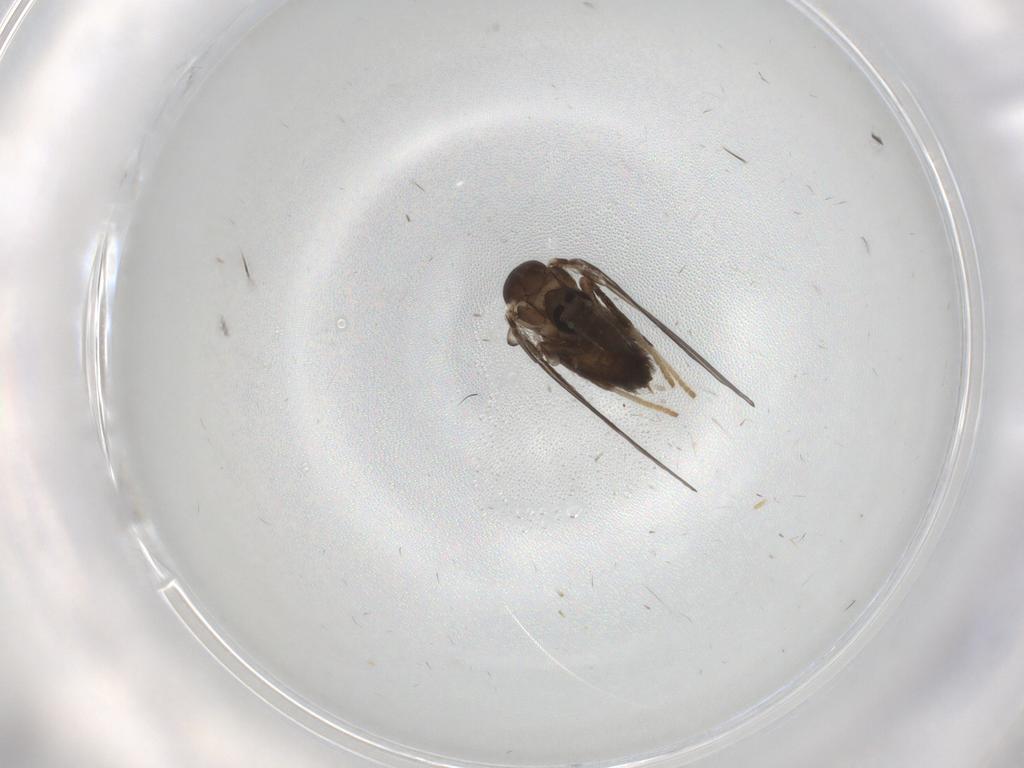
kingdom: Animalia
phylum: Arthropoda
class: Insecta
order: Diptera
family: Psychodidae
